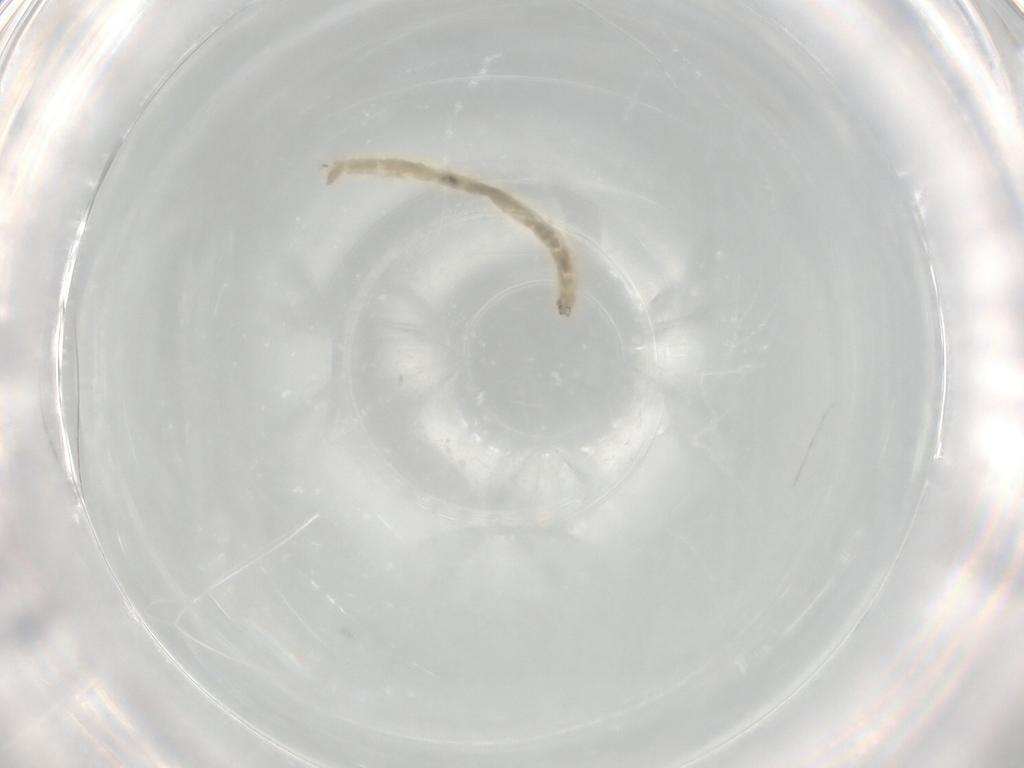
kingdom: Animalia
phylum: Arthropoda
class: Insecta
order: Diptera
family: Chironomidae
